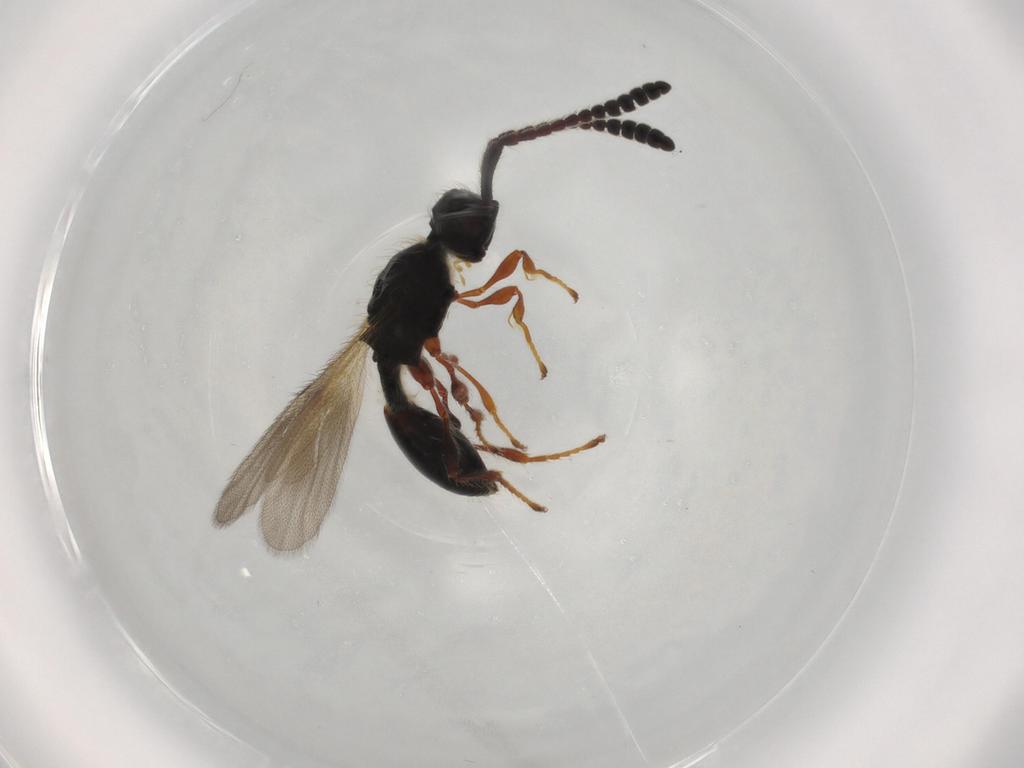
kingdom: Animalia
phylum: Arthropoda
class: Insecta
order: Hymenoptera
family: Diapriidae
